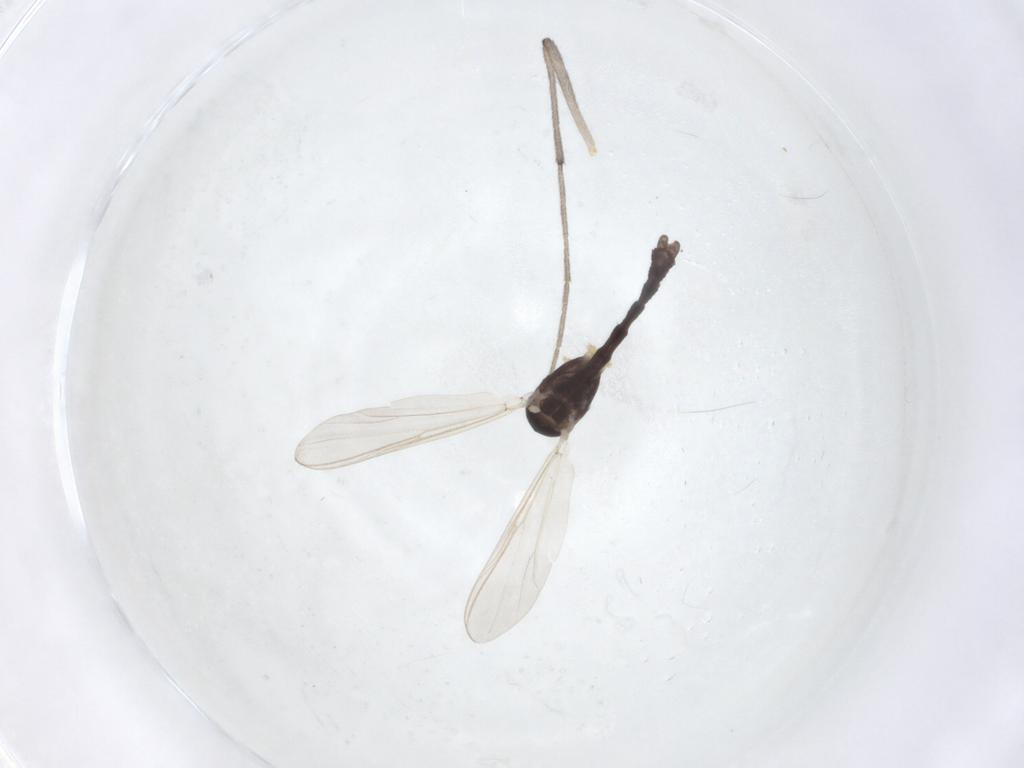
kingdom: Animalia
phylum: Arthropoda
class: Insecta
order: Diptera
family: Chironomidae
